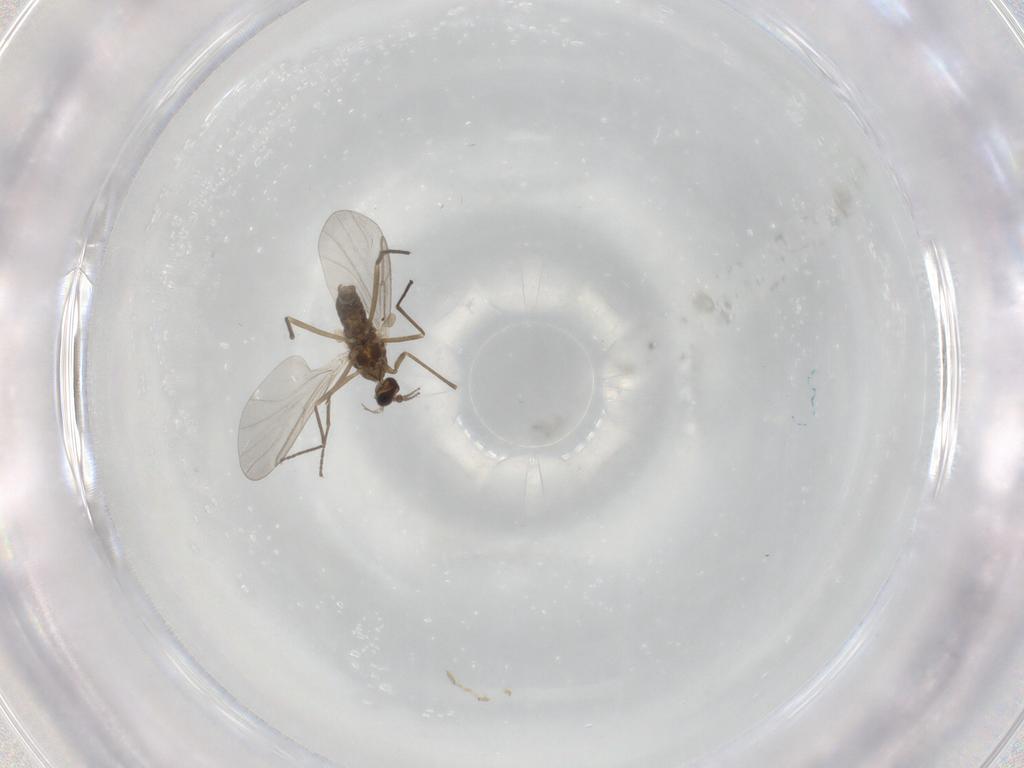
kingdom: Animalia
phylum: Arthropoda
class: Insecta
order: Diptera
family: Cecidomyiidae
